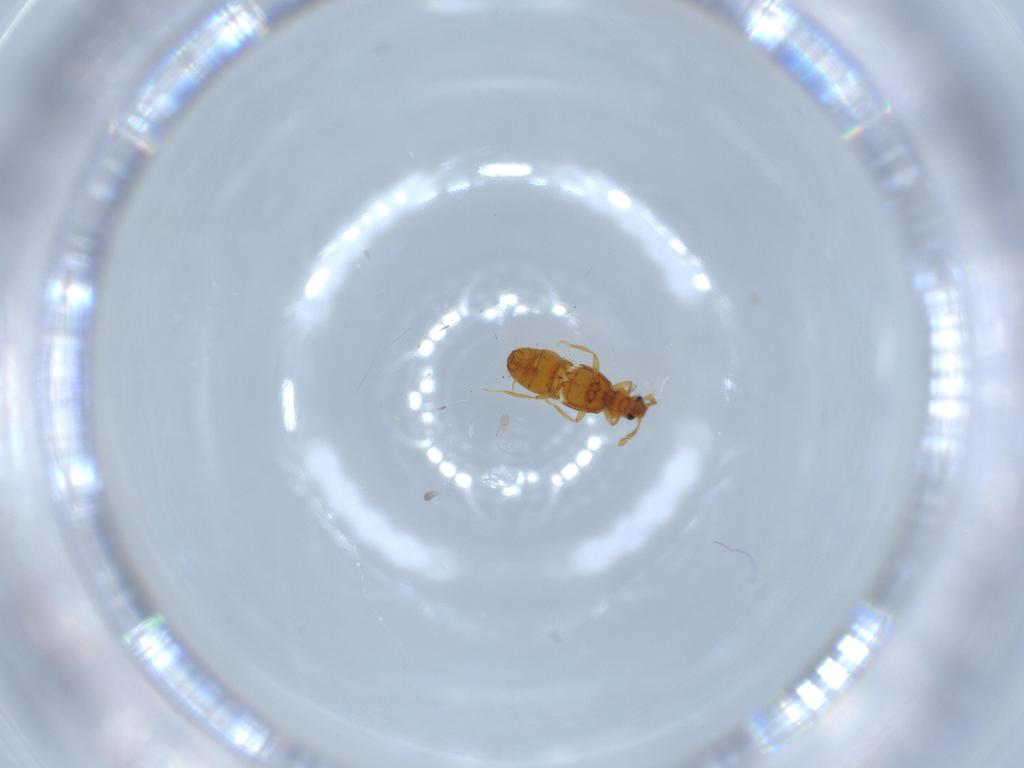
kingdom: Animalia
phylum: Arthropoda
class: Insecta
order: Coleoptera
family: Staphylinidae
